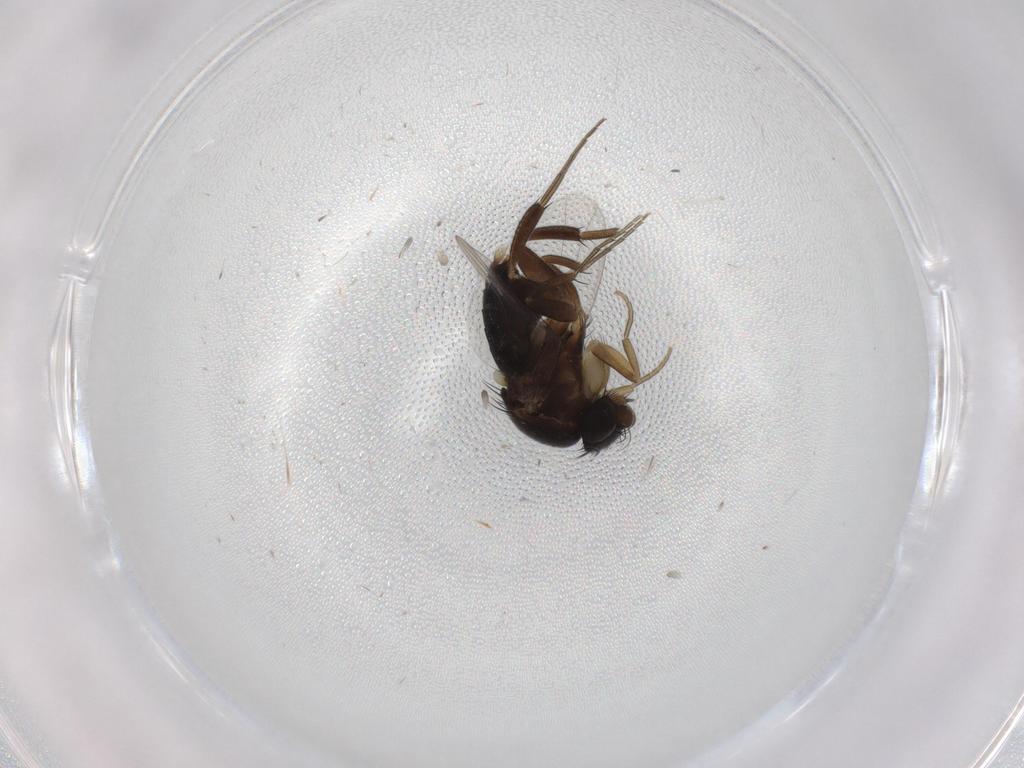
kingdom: Animalia
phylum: Arthropoda
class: Insecta
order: Diptera
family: Phoridae
